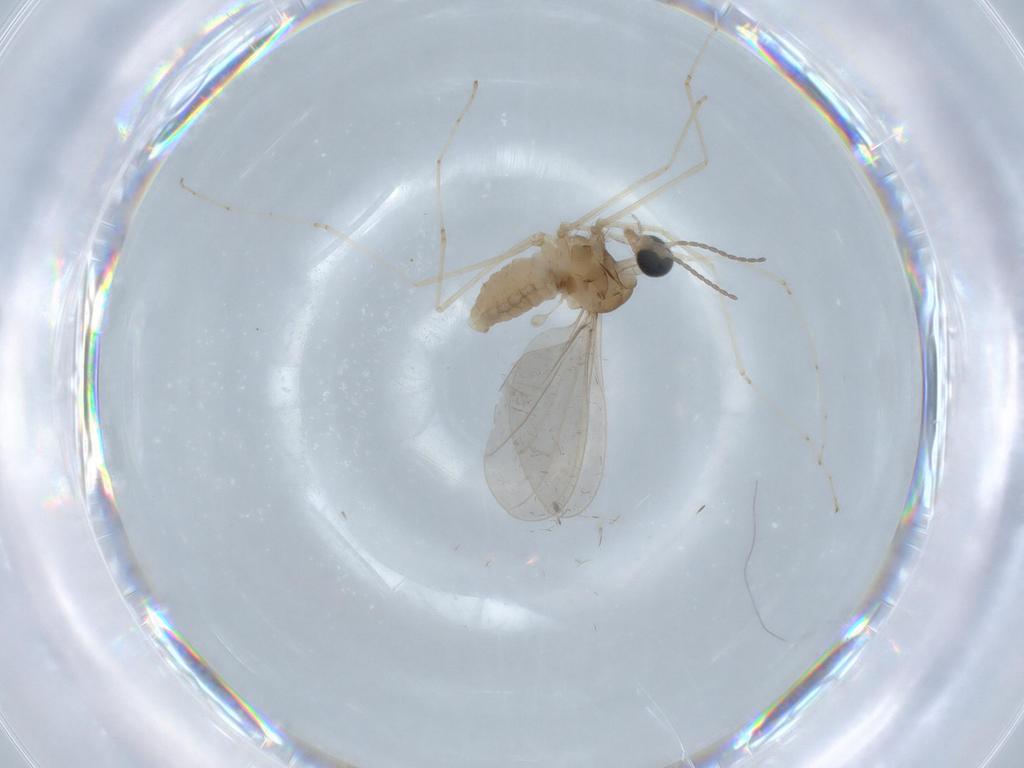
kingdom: Animalia
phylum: Arthropoda
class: Insecta
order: Diptera
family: Cecidomyiidae
